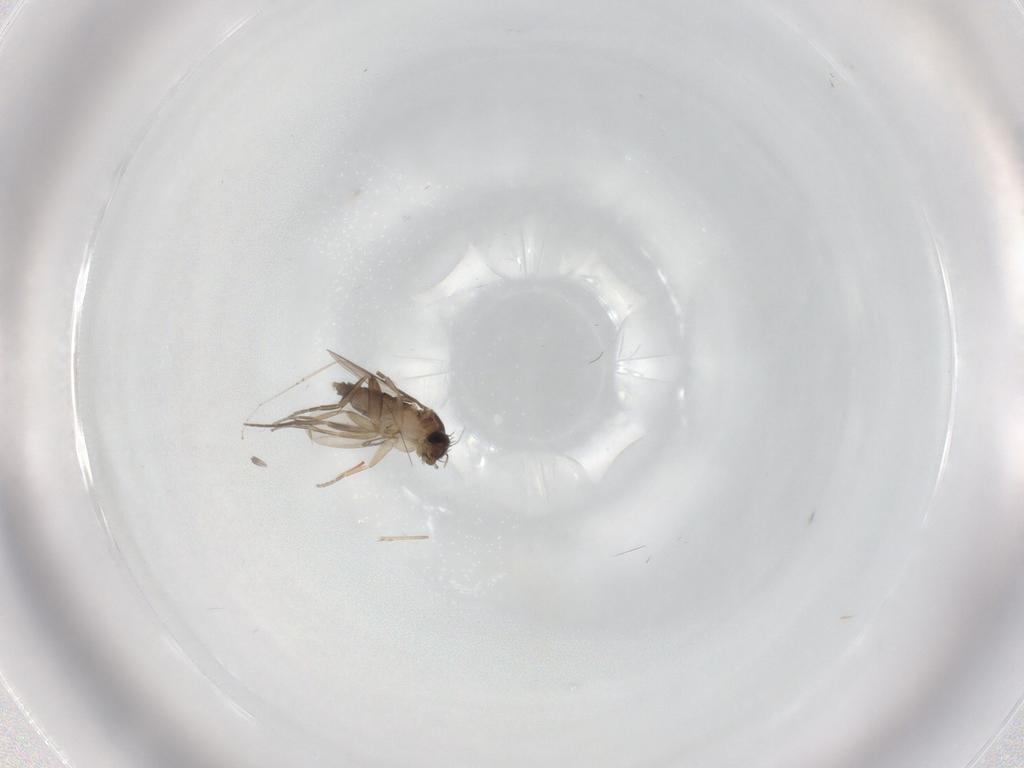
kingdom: Animalia
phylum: Arthropoda
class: Insecta
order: Diptera
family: Phoridae
